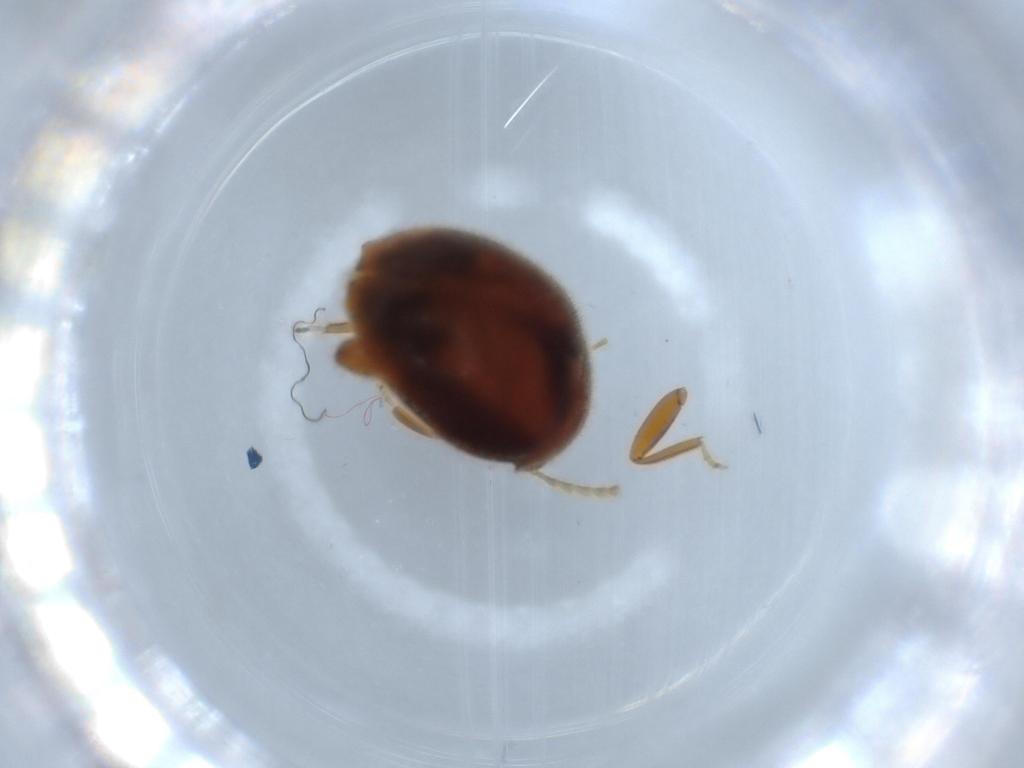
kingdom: Animalia
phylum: Arthropoda
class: Insecta
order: Coleoptera
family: Scirtidae
